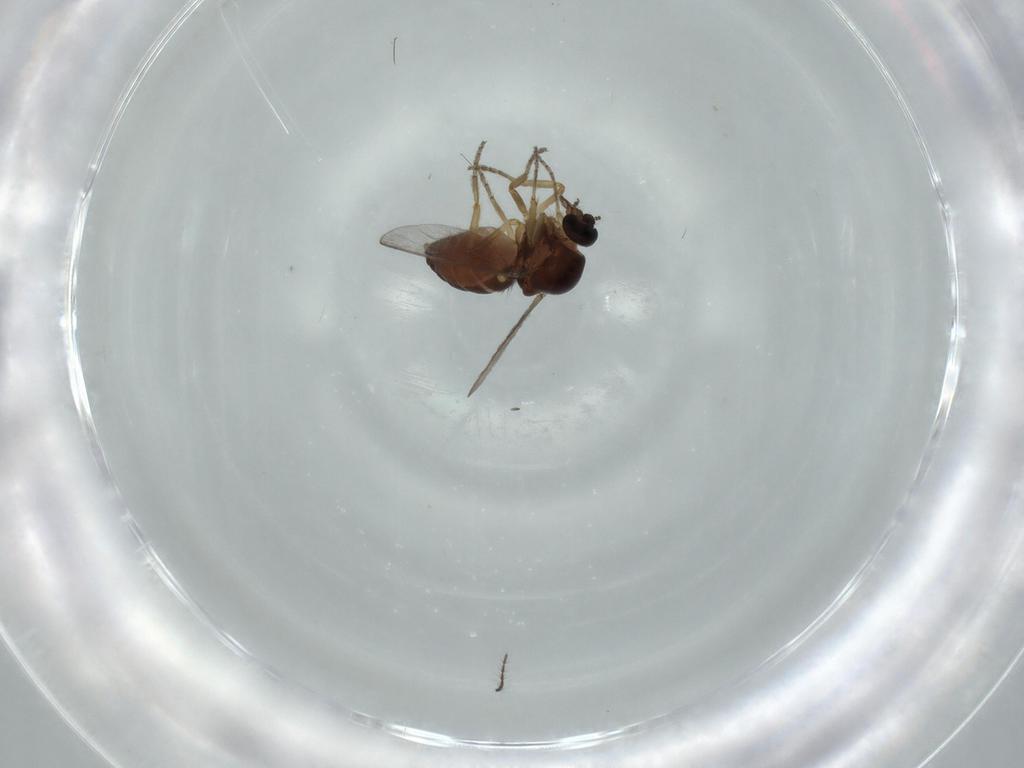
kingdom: Animalia
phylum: Arthropoda
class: Insecta
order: Diptera
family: Ceratopogonidae
